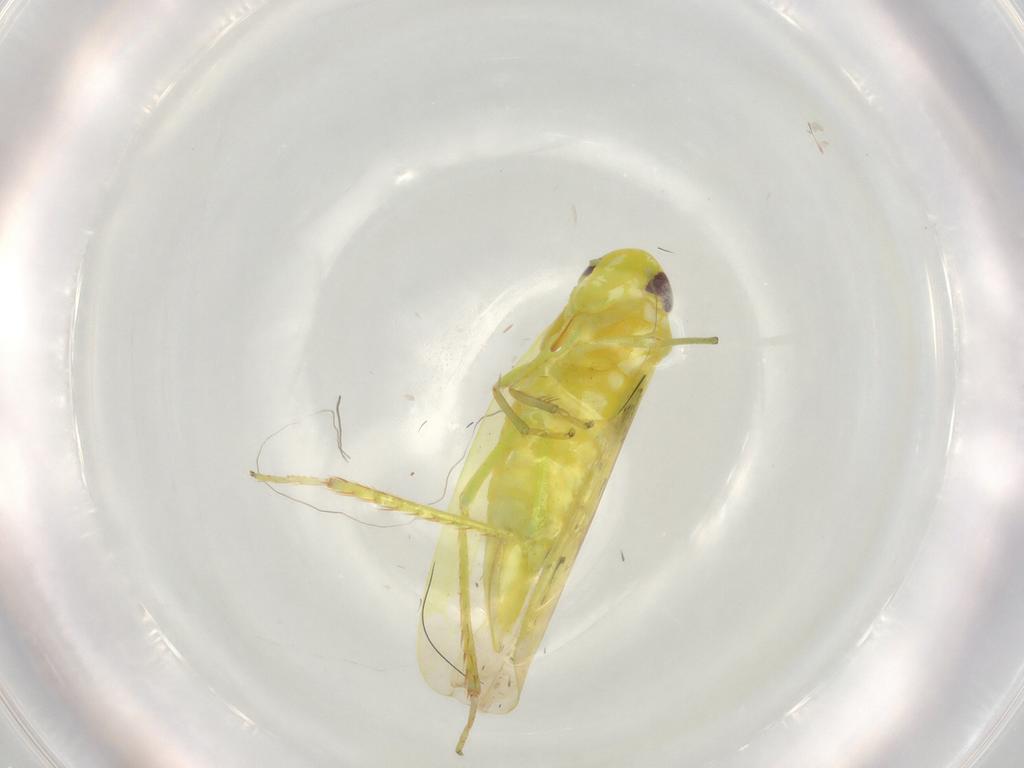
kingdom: Animalia
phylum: Arthropoda
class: Insecta
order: Hemiptera
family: Cicadellidae
